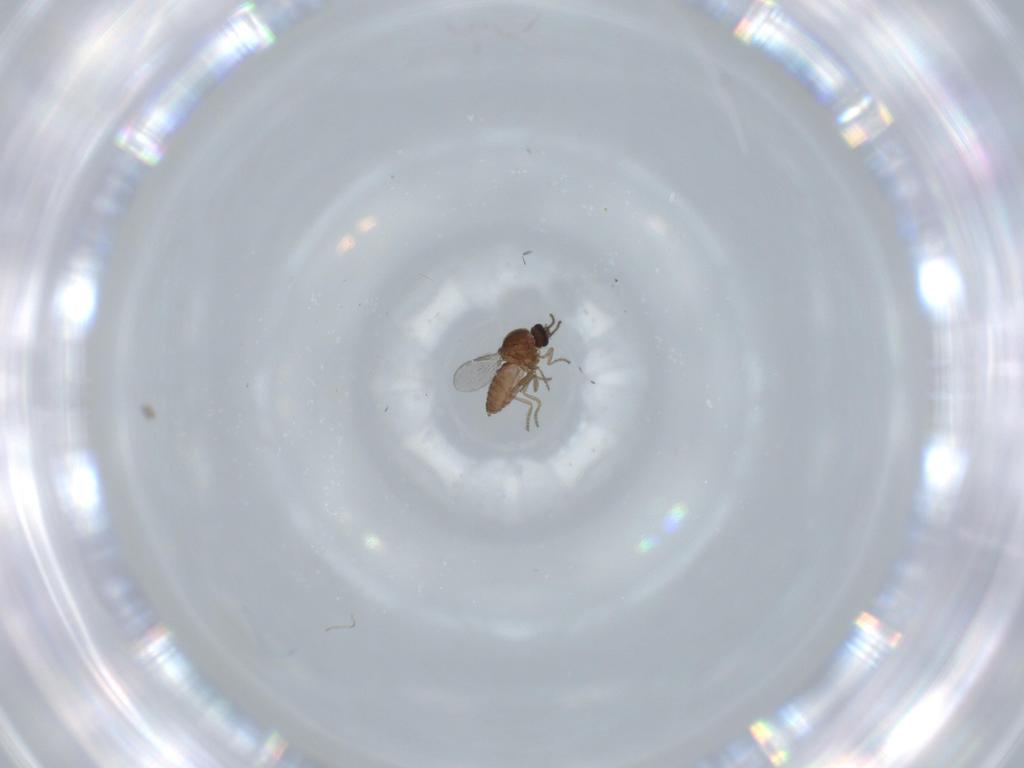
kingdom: Animalia
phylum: Arthropoda
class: Insecta
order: Diptera
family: Ceratopogonidae
